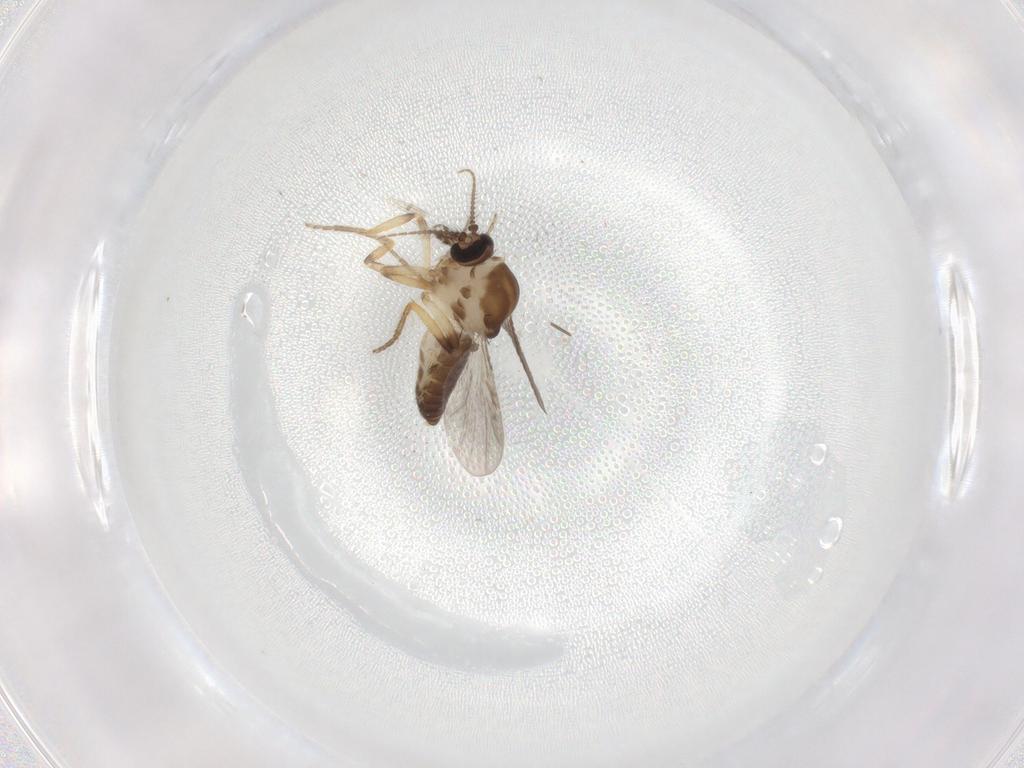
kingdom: Animalia
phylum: Arthropoda
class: Insecta
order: Diptera
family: Ceratopogonidae
